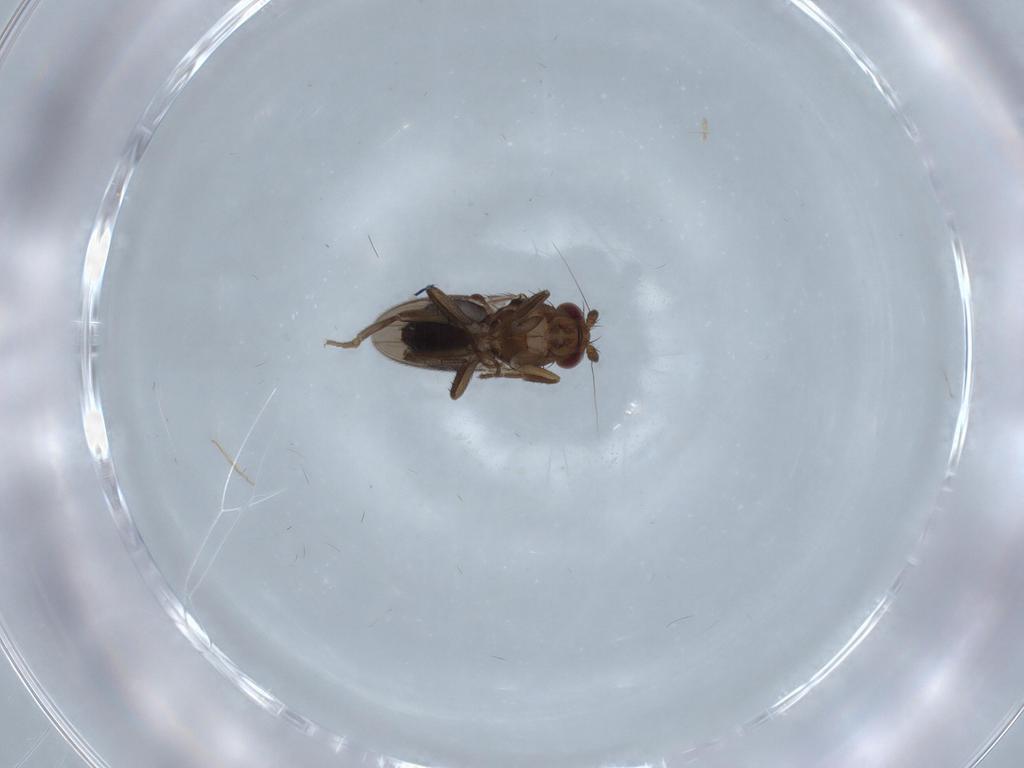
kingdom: Animalia
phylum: Arthropoda
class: Insecta
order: Diptera
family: Sphaeroceridae
